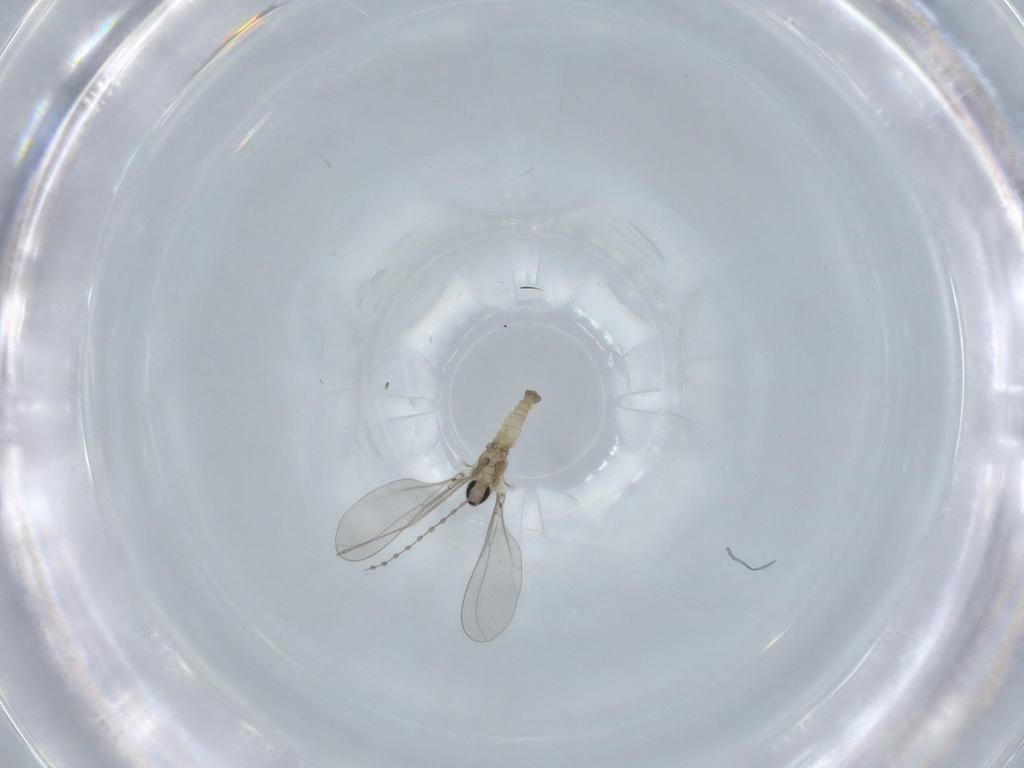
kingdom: Animalia
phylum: Arthropoda
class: Insecta
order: Diptera
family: Cecidomyiidae
